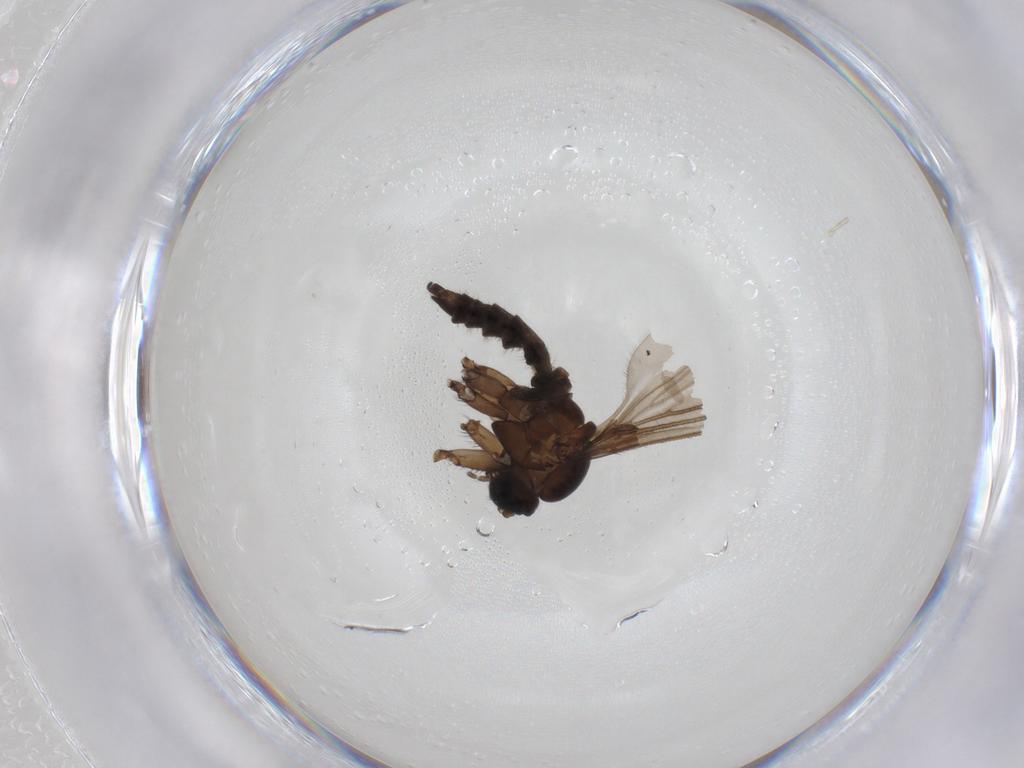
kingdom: Animalia
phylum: Arthropoda
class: Insecta
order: Diptera
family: Sciaridae
